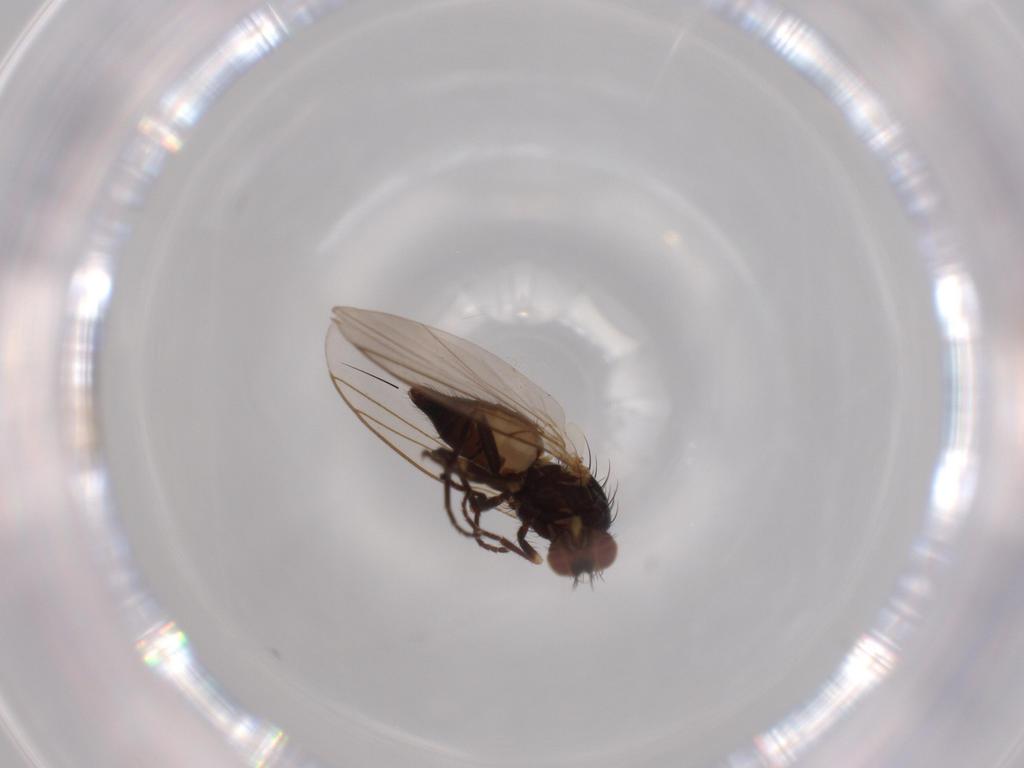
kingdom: Animalia
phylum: Arthropoda
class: Insecta
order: Diptera
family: Agromyzidae
